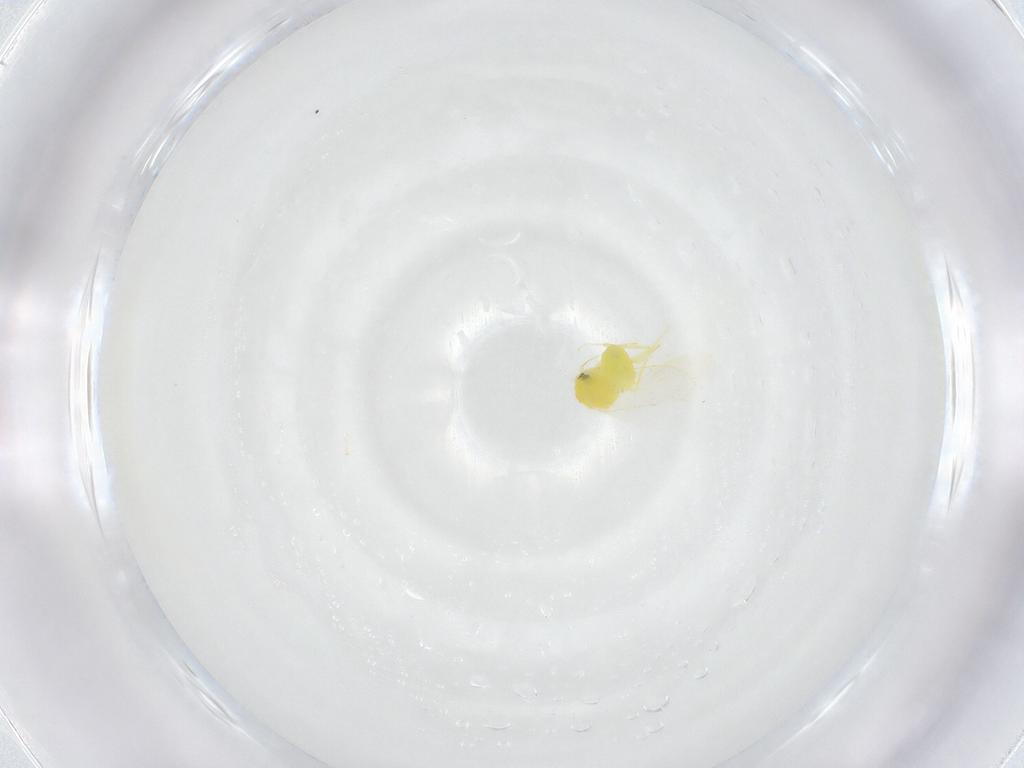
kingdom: Animalia
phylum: Arthropoda
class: Insecta
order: Hemiptera
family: Aleyrodidae
